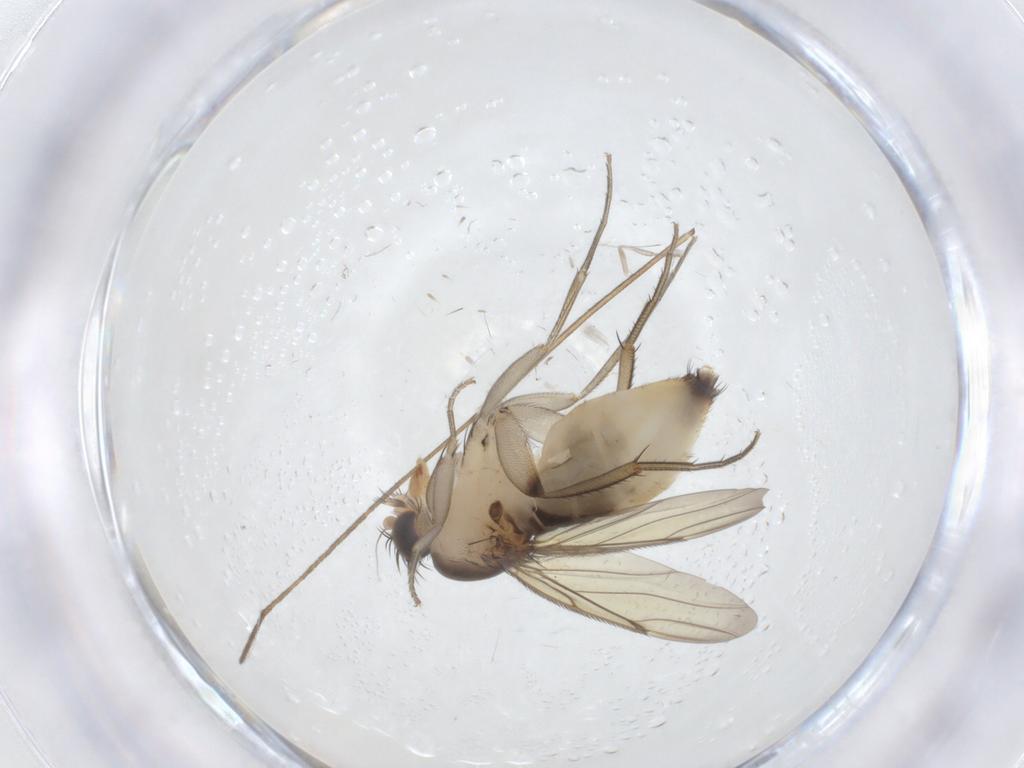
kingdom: Animalia
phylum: Arthropoda
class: Insecta
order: Diptera
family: Phoridae
